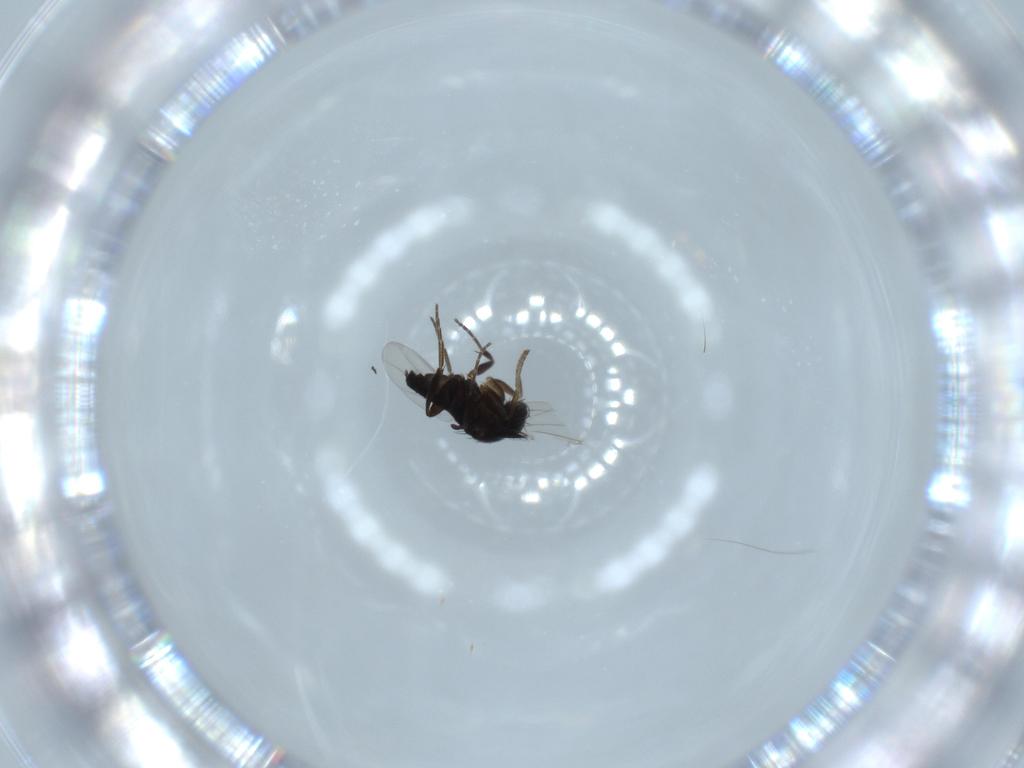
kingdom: Animalia
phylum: Arthropoda
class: Insecta
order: Diptera
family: Phoridae
